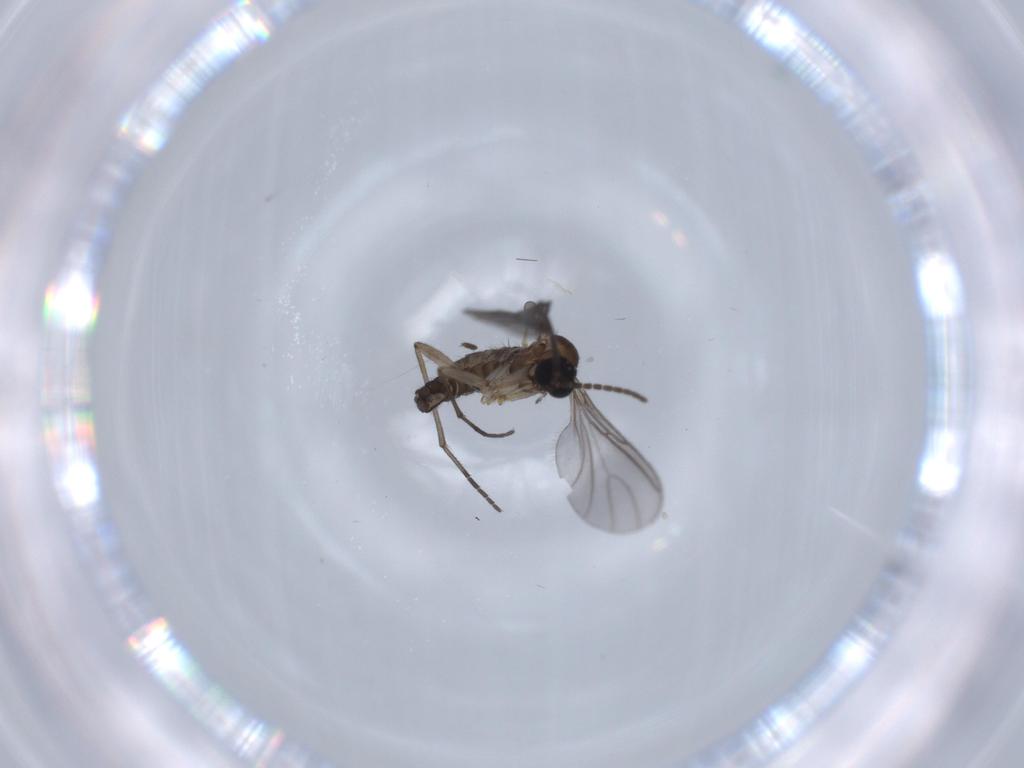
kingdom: Animalia
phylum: Arthropoda
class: Insecta
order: Diptera
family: Sciaridae
